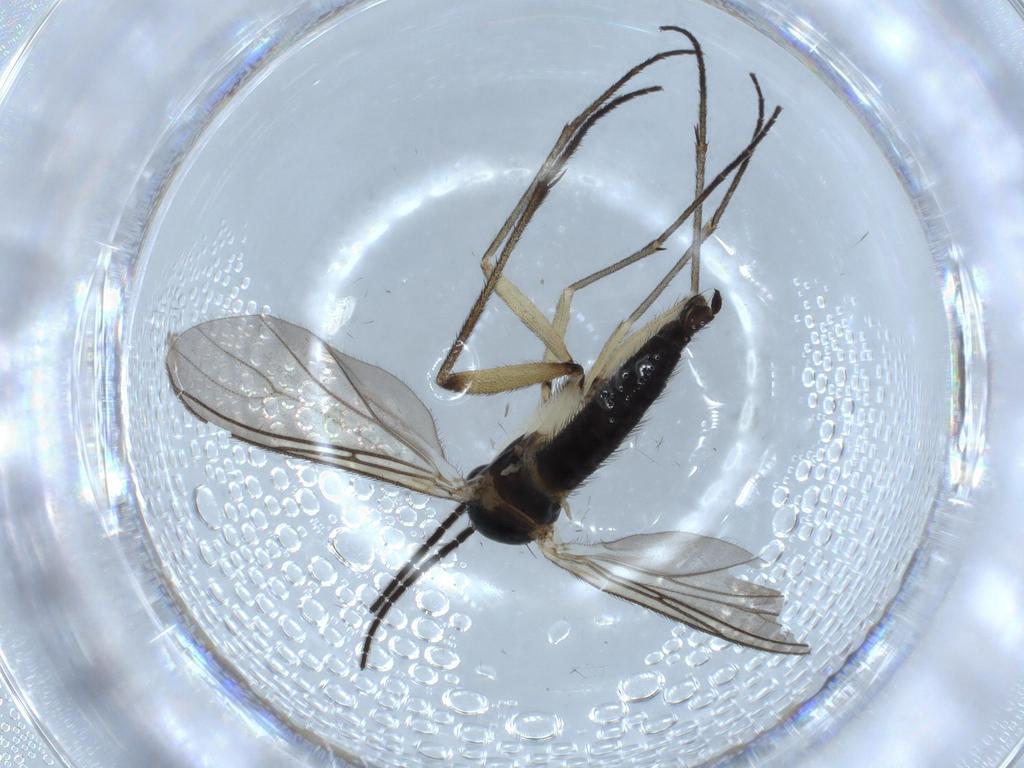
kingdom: Animalia
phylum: Arthropoda
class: Insecta
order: Diptera
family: Sciaridae
